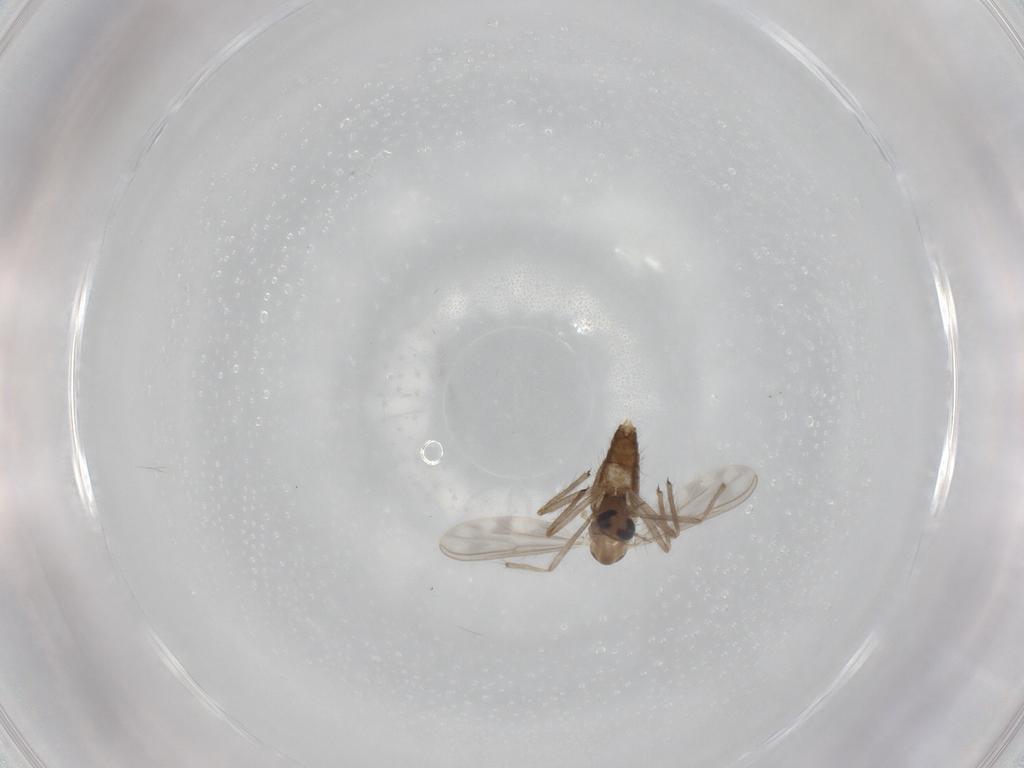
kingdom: Animalia
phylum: Arthropoda
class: Insecta
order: Diptera
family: Chironomidae
